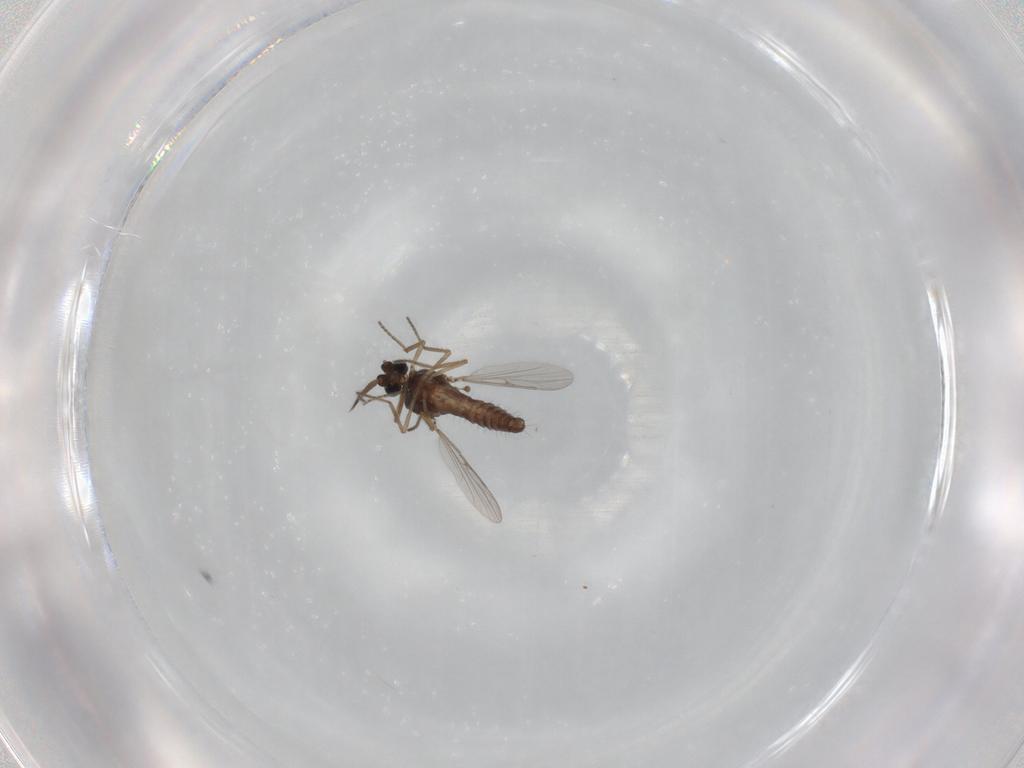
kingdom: Animalia
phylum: Arthropoda
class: Insecta
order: Diptera
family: Ceratopogonidae
